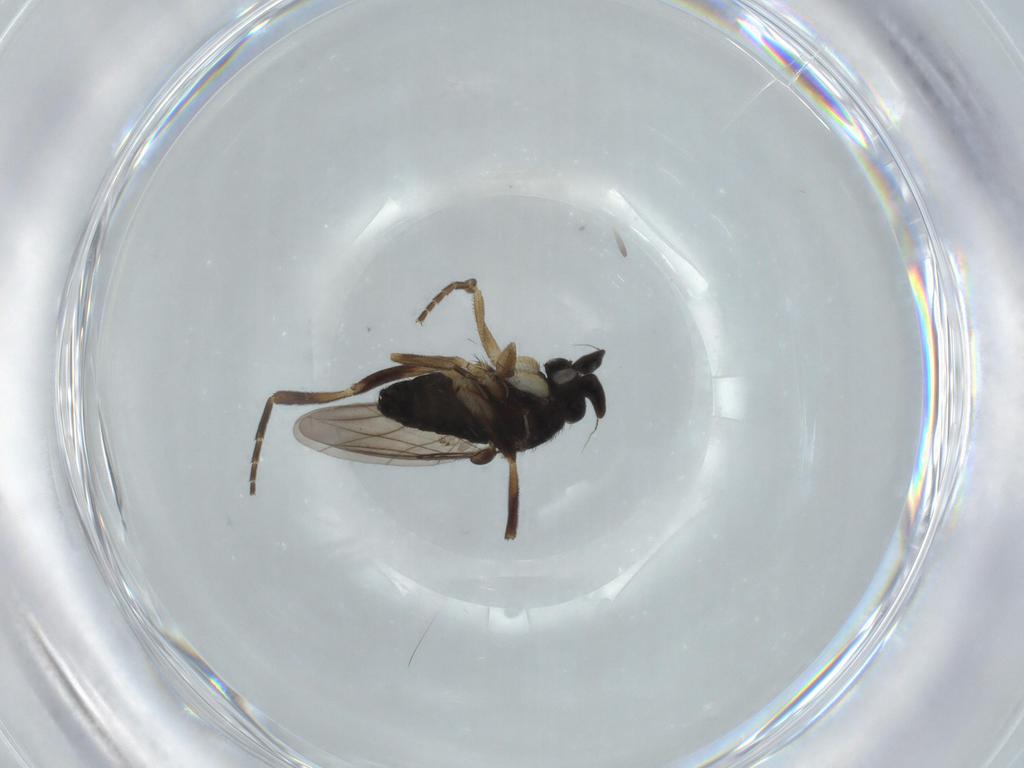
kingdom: Animalia
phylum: Arthropoda
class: Insecta
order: Diptera
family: Phoridae
